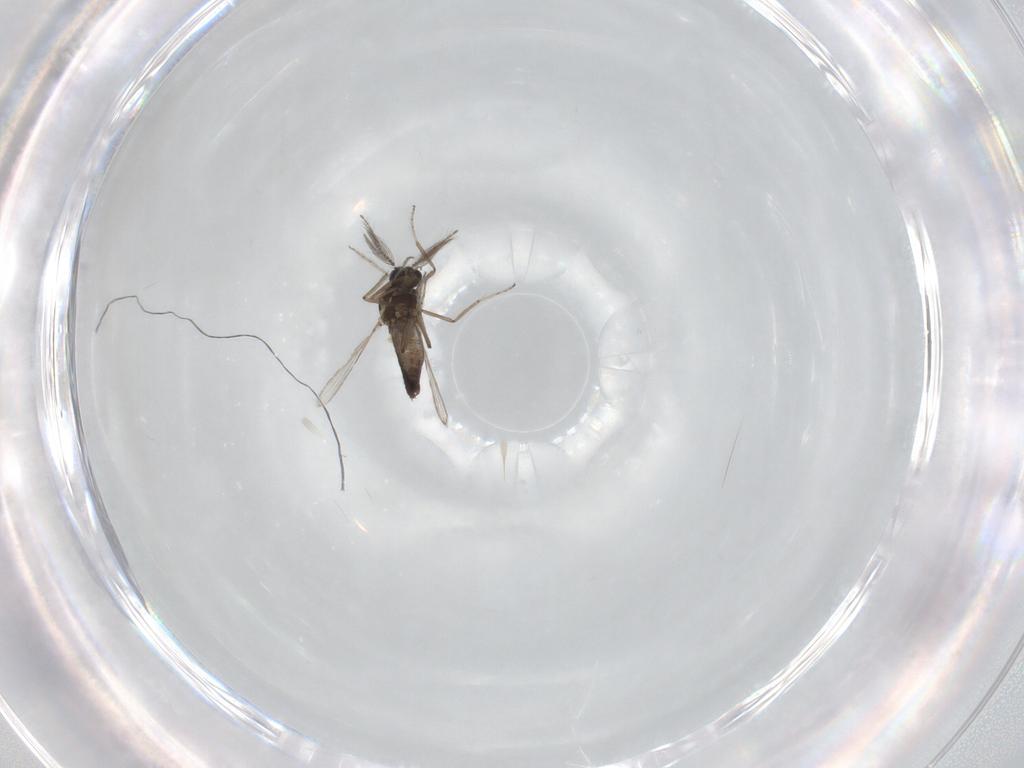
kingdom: Animalia
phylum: Arthropoda
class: Insecta
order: Diptera
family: Ceratopogonidae
